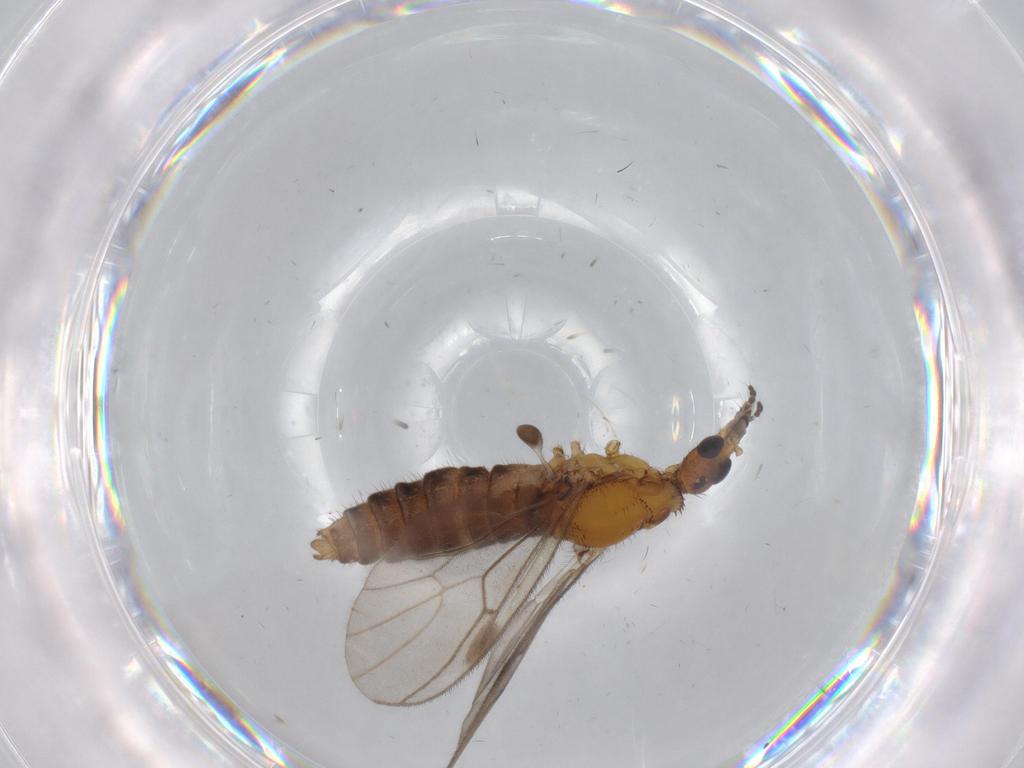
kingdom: Animalia
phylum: Arthropoda
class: Insecta
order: Diptera
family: Bibionidae
